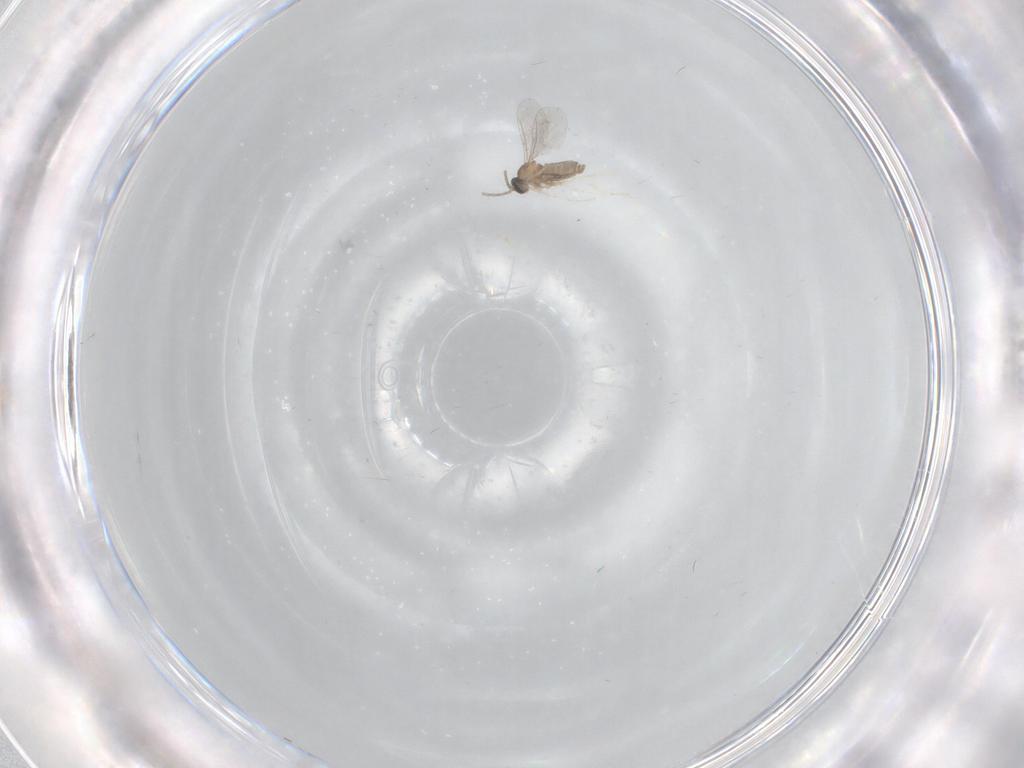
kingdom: Animalia
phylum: Arthropoda
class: Insecta
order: Diptera
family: Cecidomyiidae
